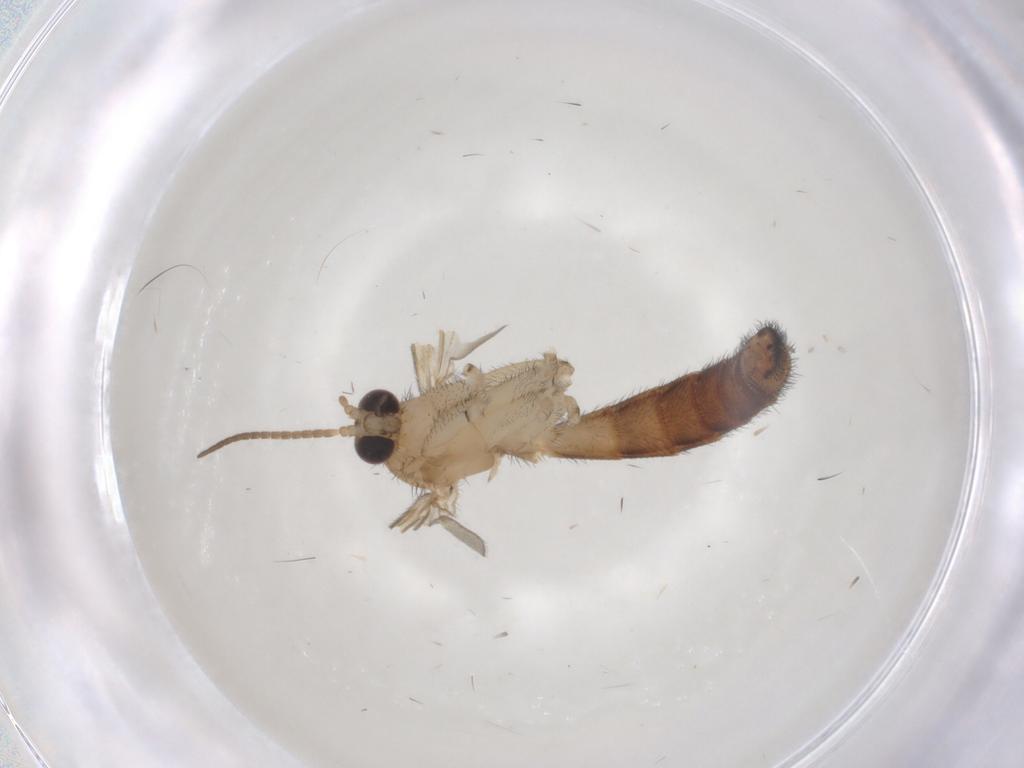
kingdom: Animalia
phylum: Arthropoda
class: Insecta
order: Diptera
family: Keroplatidae
